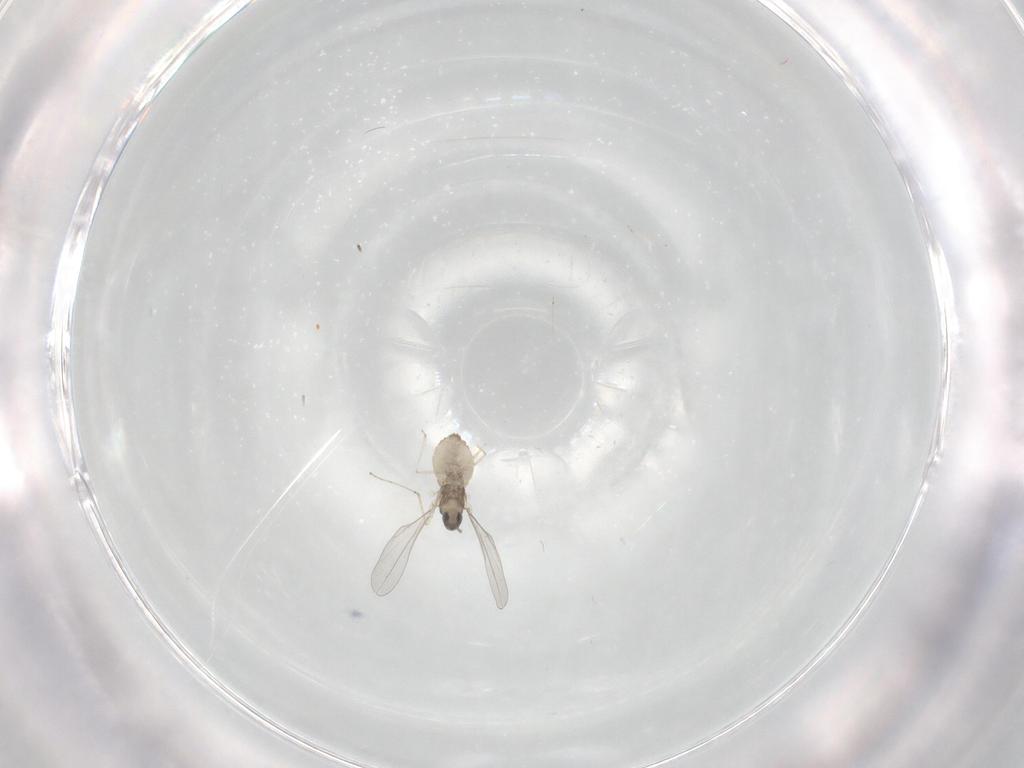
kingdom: Animalia
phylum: Arthropoda
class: Insecta
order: Diptera
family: Cecidomyiidae
